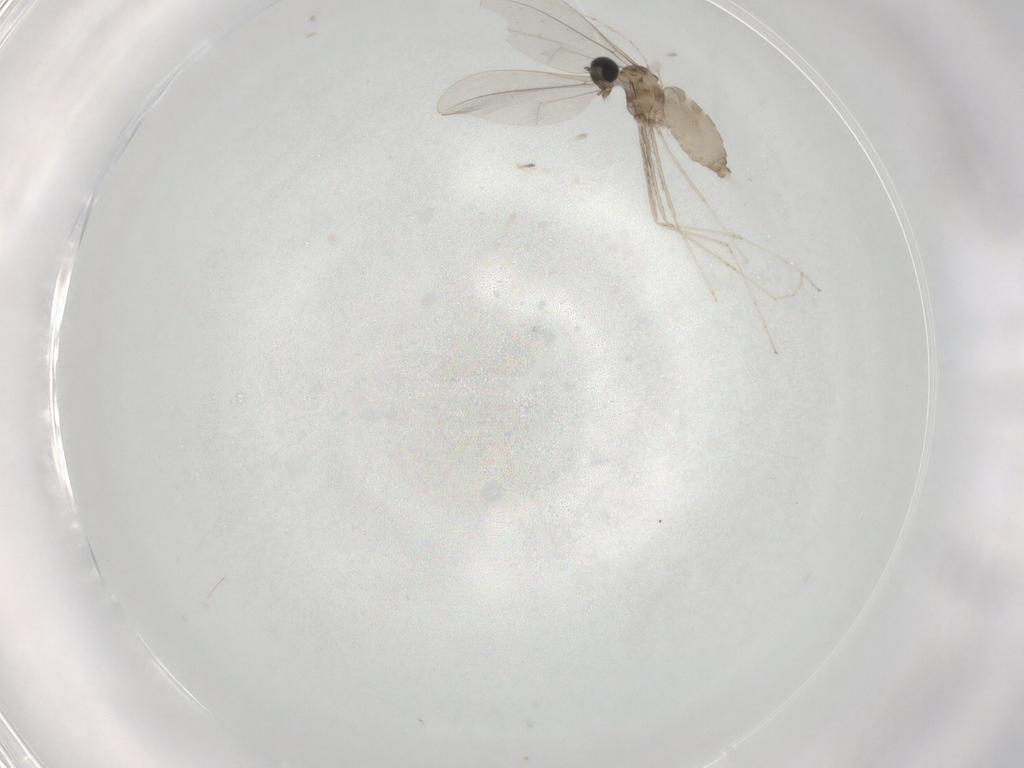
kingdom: Animalia
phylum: Arthropoda
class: Insecta
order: Diptera
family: Cecidomyiidae
